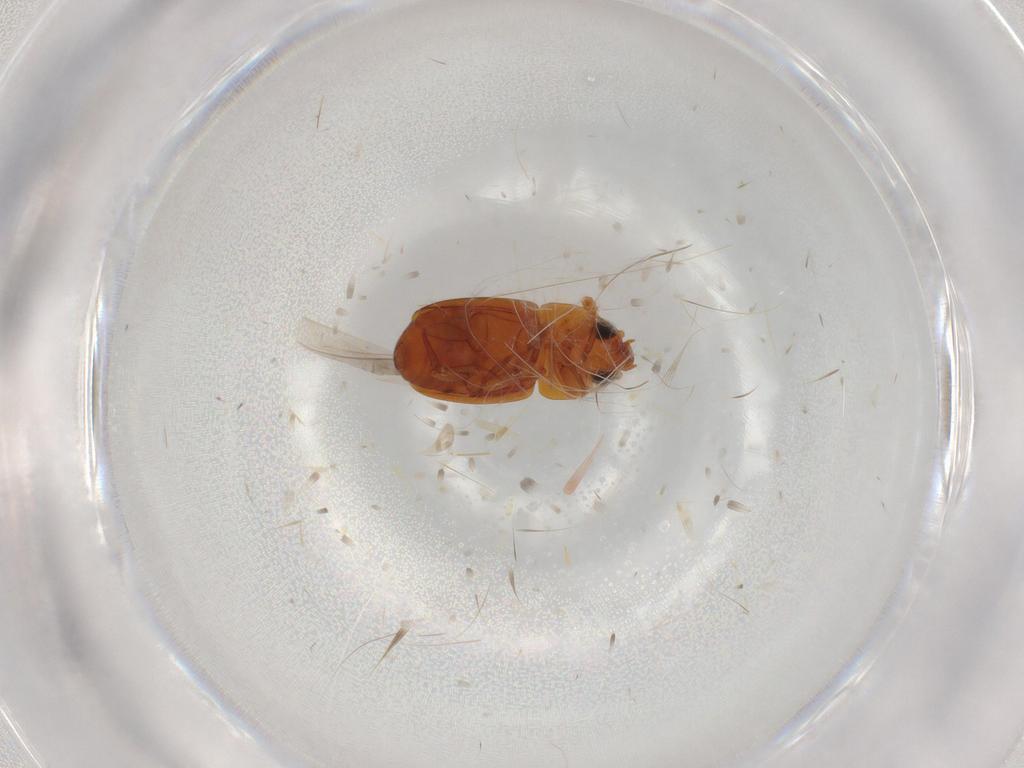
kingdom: Animalia
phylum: Arthropoda
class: Insecta
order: Coleoptera
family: Nitidulidae
